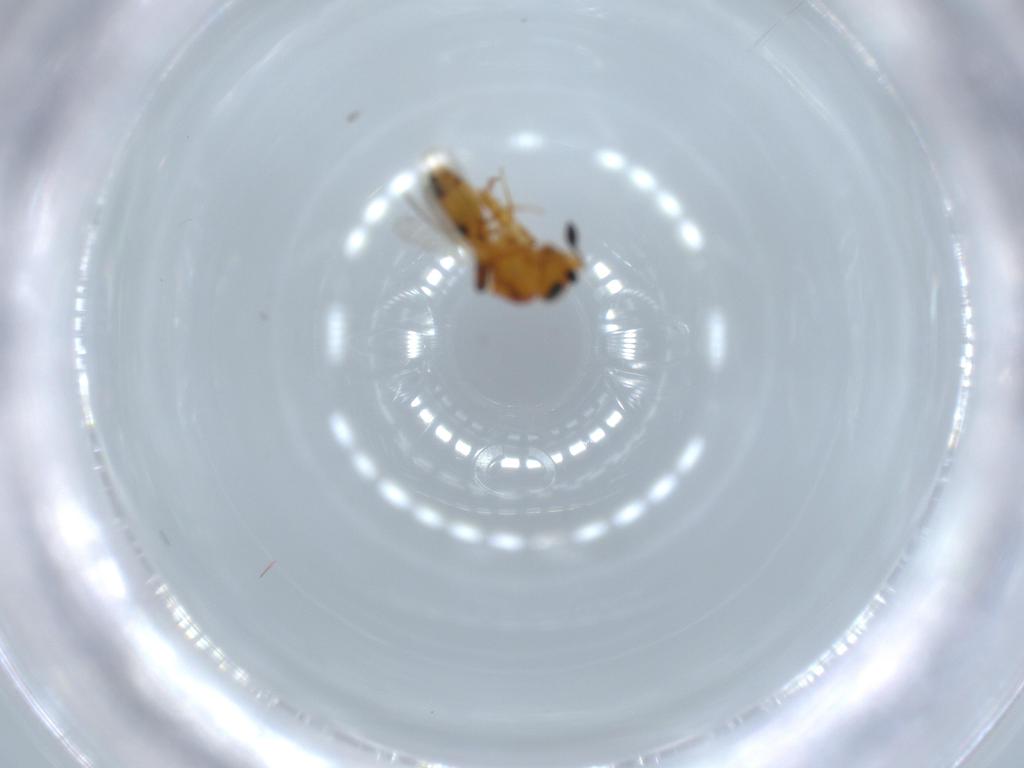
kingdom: Animalia
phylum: Arthropoda
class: Insecta
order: Hymenoptera
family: Scelionidae
